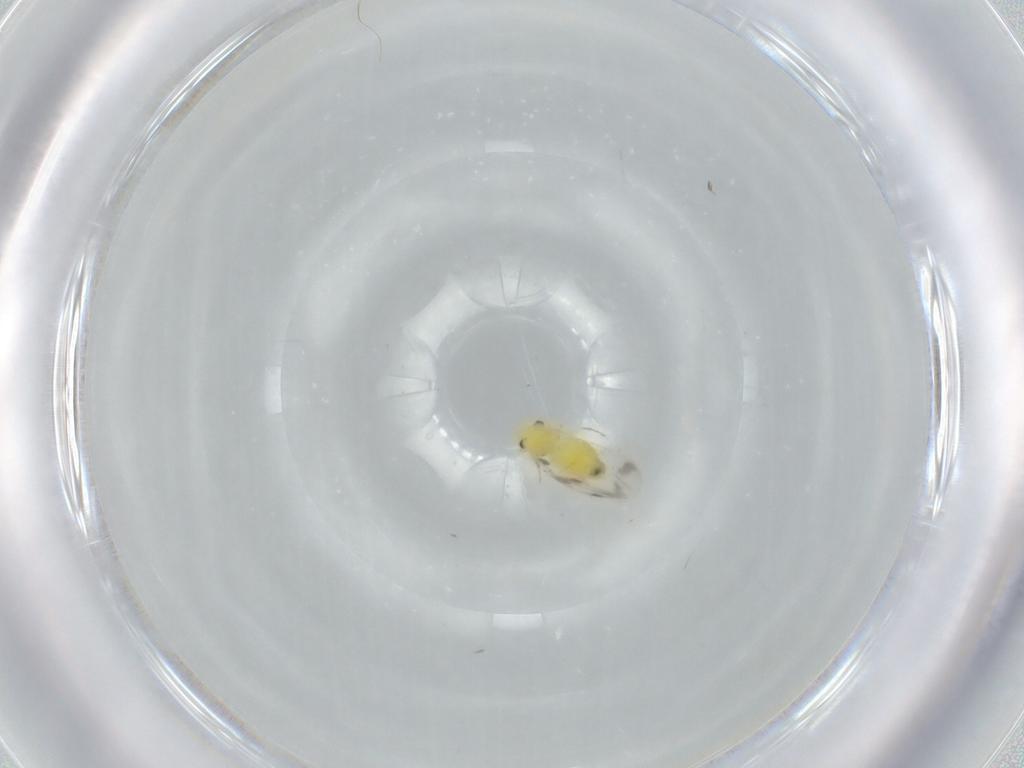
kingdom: Animalia
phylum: Arthropoda
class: Insecta
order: Hemiptera
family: Aleyrodidae
